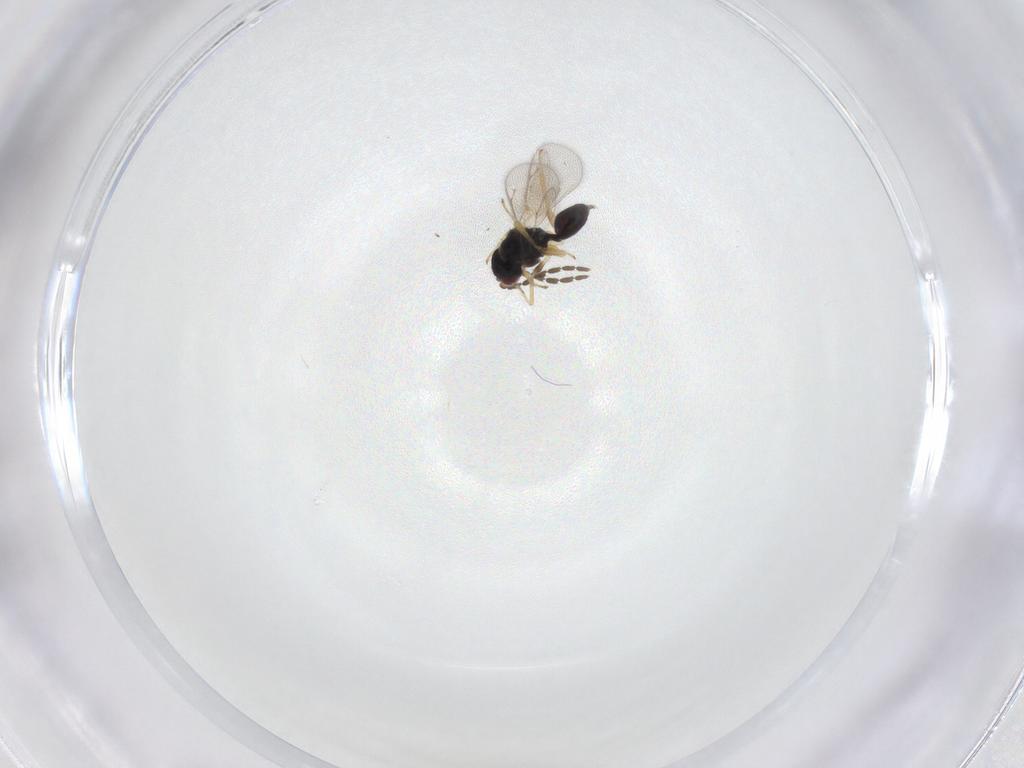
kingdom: Animalia
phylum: Arthropoda
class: Insecta
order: Hymenoptera
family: Eulophidae
